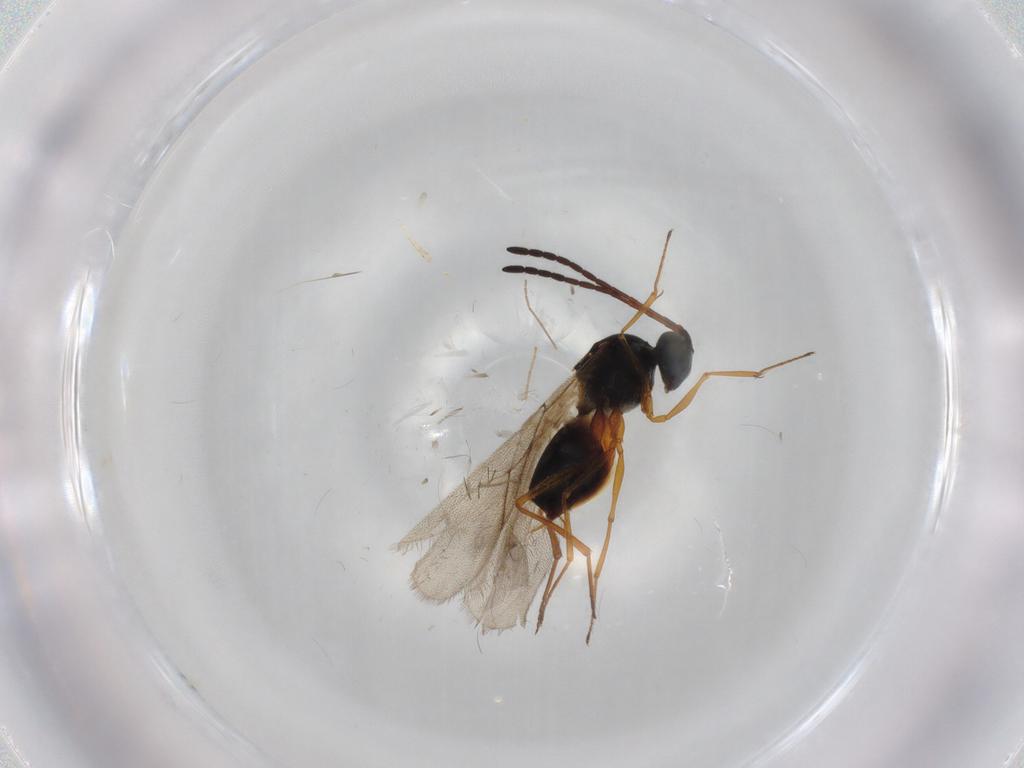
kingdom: Animalia
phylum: Arthropoda
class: Insecta
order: Hymenoptera
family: Figitidae
